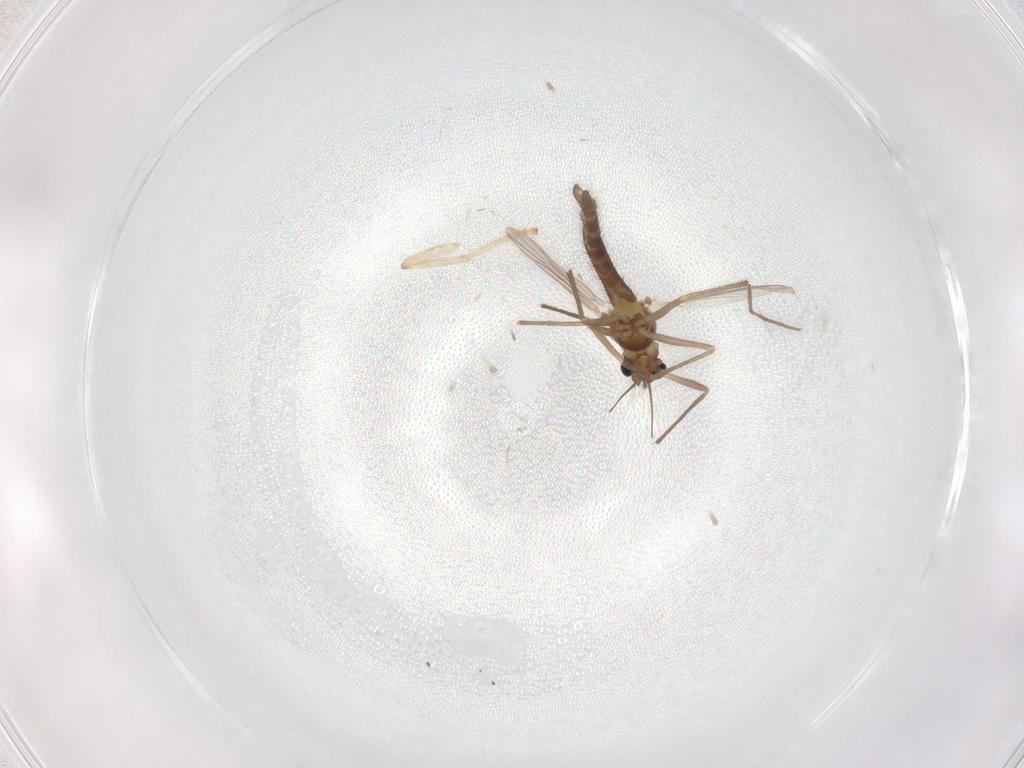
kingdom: Animalia
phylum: Arthropoda
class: Insecta
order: Diptera
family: Chironomidae
